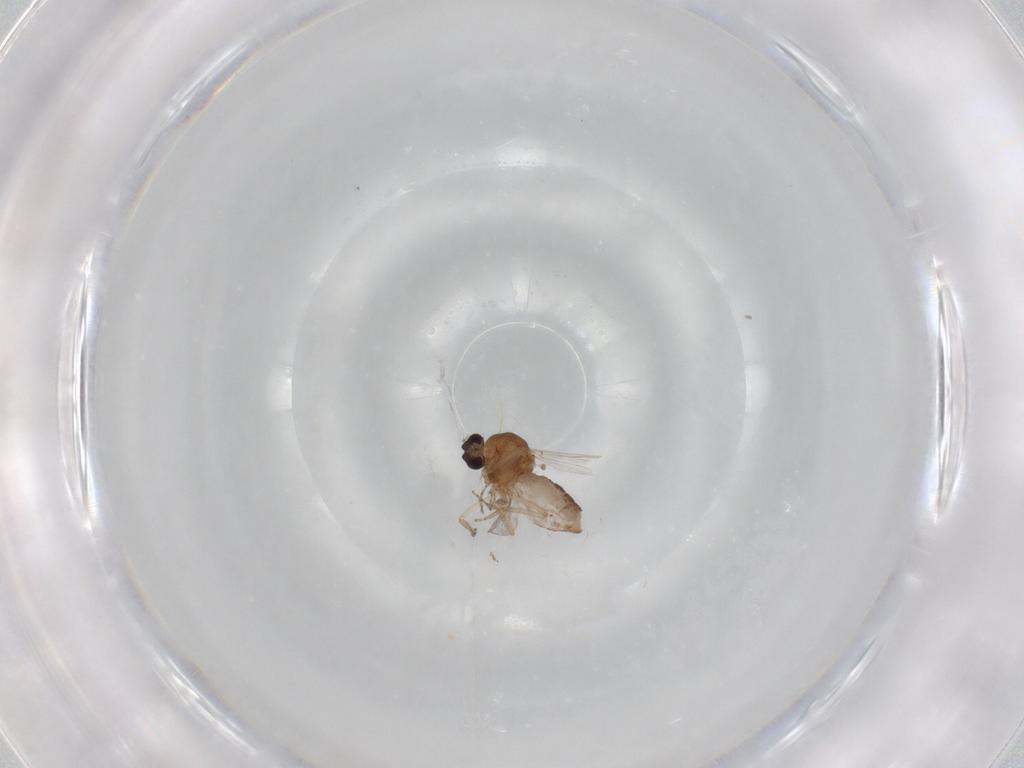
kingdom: Animalia
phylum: Arthropoda
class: Insecta
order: Diptera
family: Ceratopogonidae
